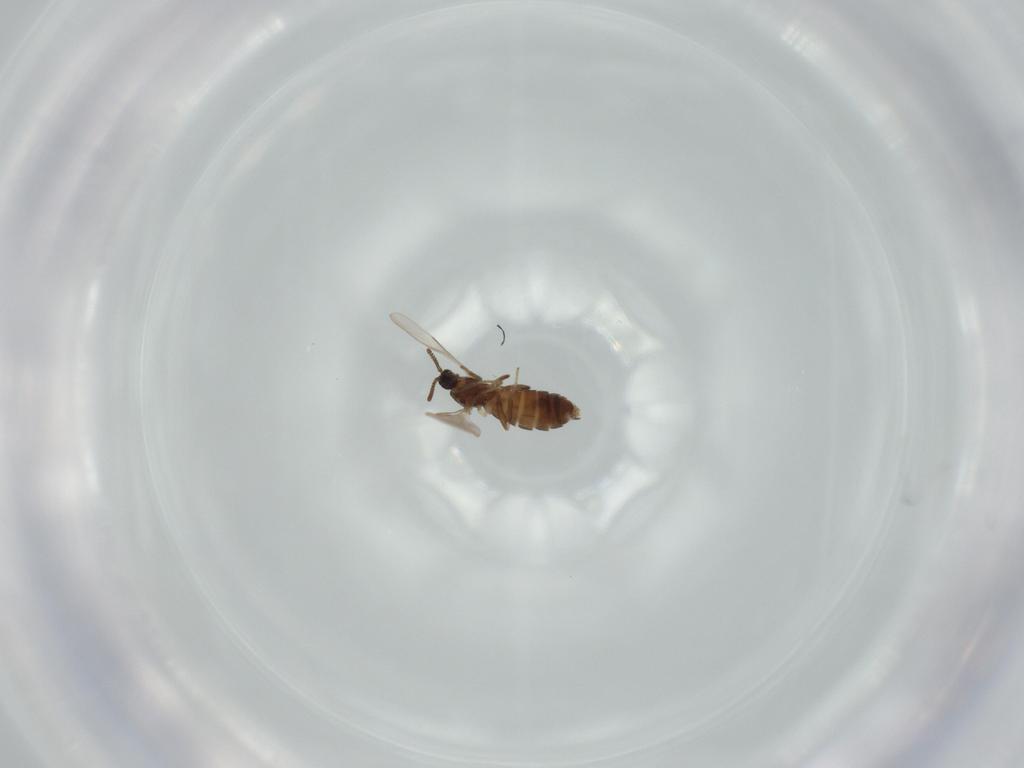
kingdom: Animalia
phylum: Arthropoda
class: Insecta
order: Diptera
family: Scatopsidae
